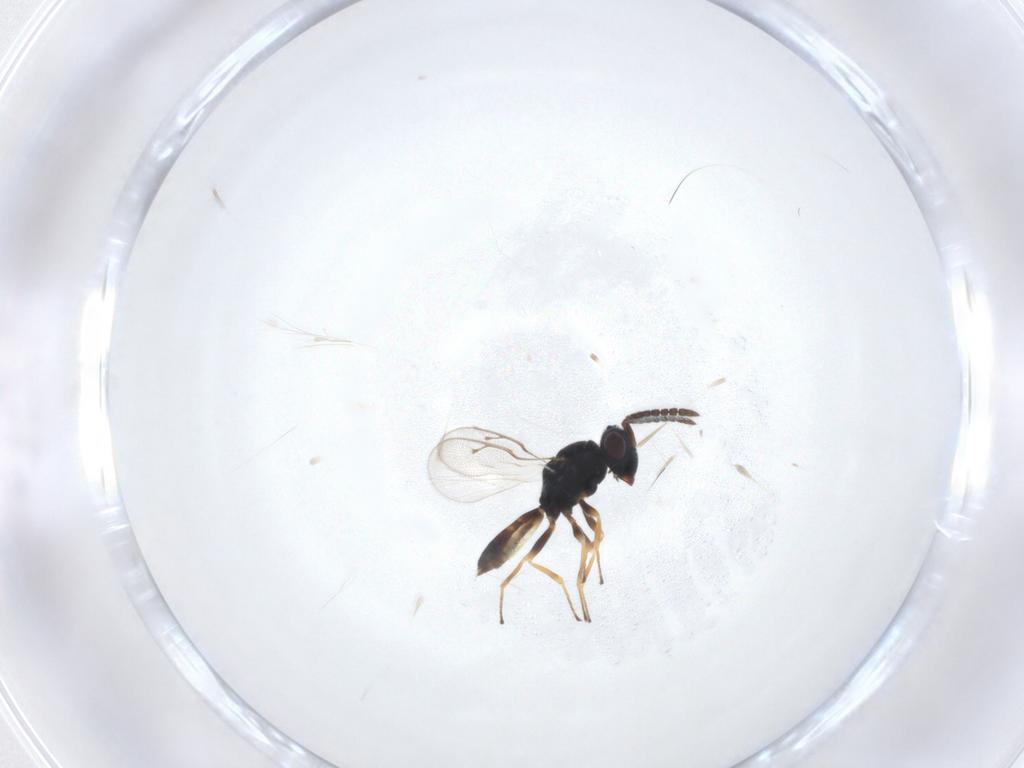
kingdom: Animalia
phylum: Arthropoda
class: Insecta
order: Hymenoptera
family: Pteromalidae
